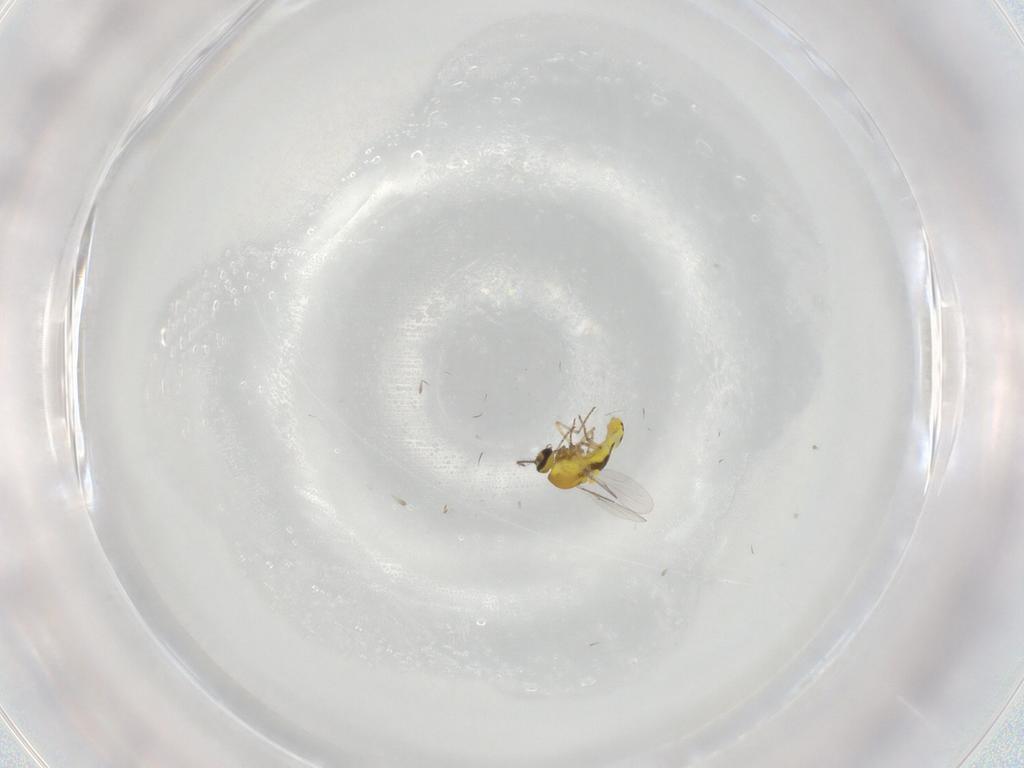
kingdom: Animalia
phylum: Arthropoda
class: Insecta
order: Diptera
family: Ceratopogonidae
